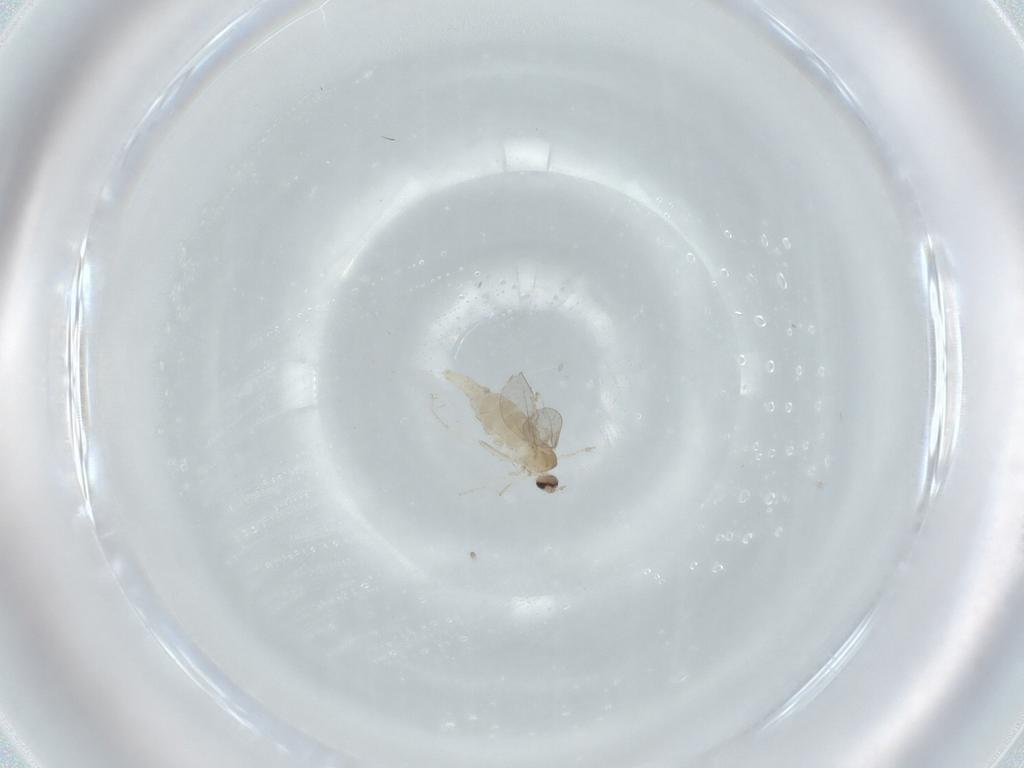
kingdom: Animalia
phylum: Arthropoda
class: Insecta
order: Diptera
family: Cecidomyiidae
